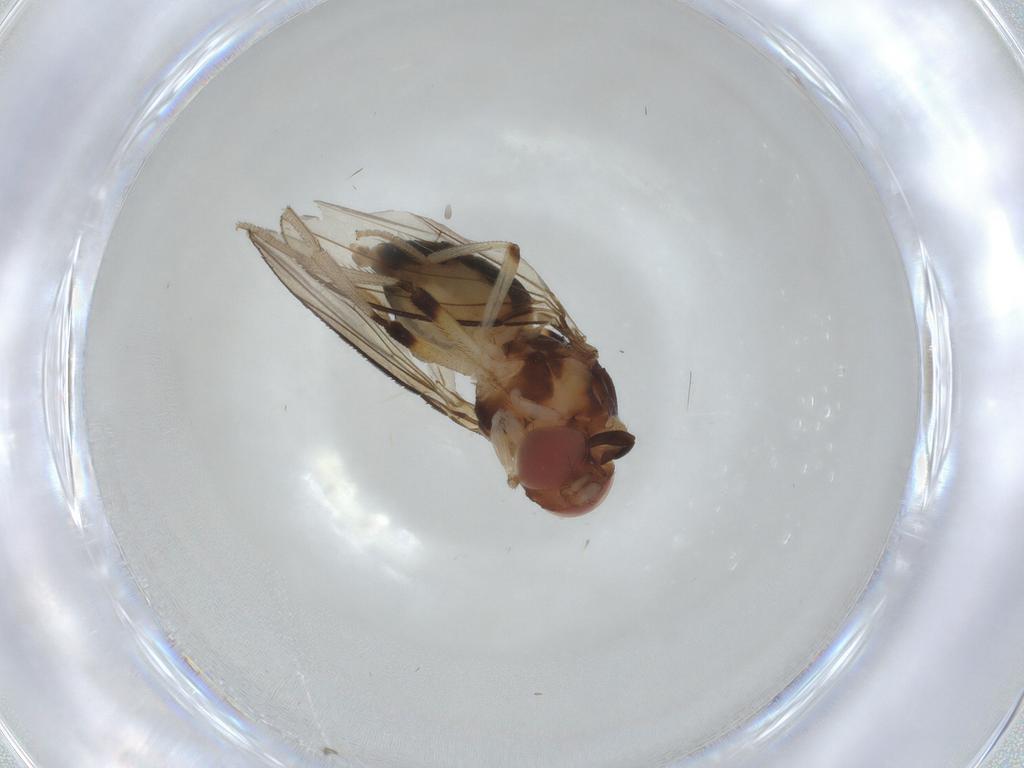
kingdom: Animalia
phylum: Arthropoda
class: Insecta
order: Diptera
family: Drosophilidae
